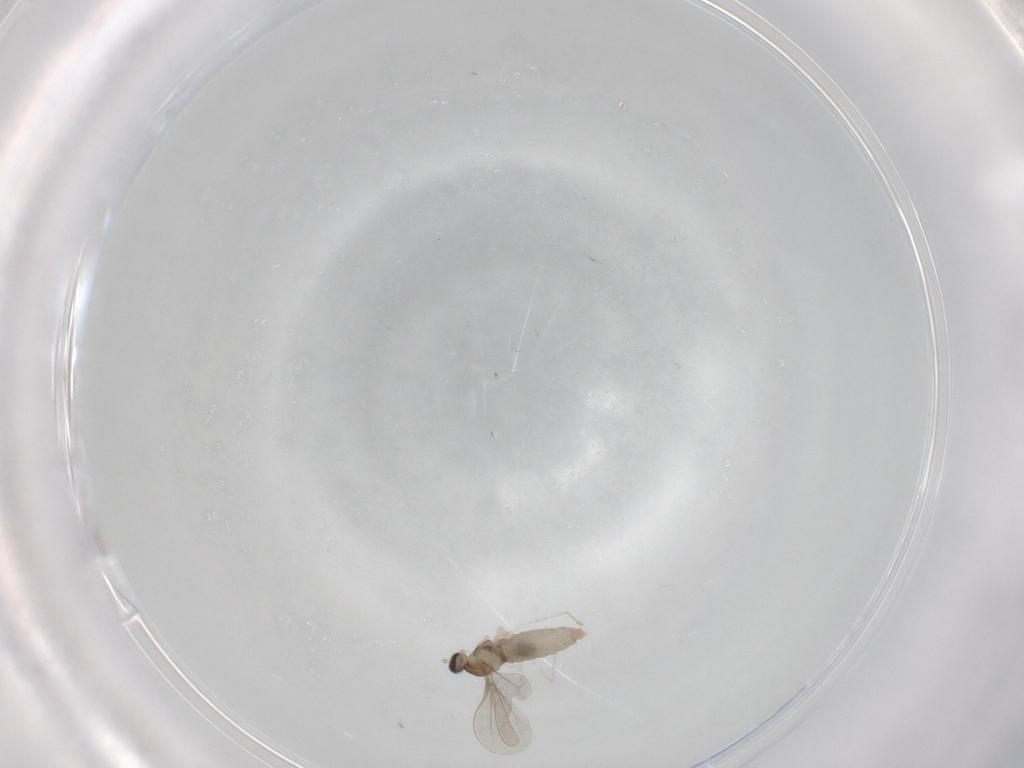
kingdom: Animalia
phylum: Arthropoda
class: Insecta
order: Diptera
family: Cecidomyiidae
